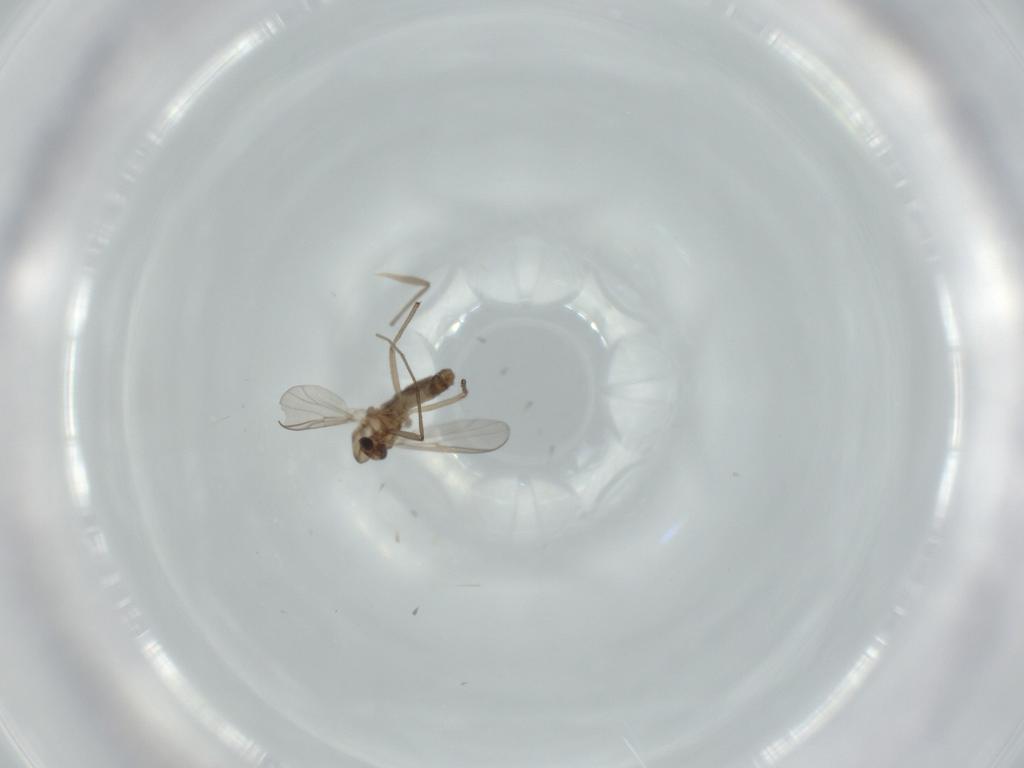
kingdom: Animalia
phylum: Arthropoda
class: Insecta
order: Diptera
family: Chironomidae
